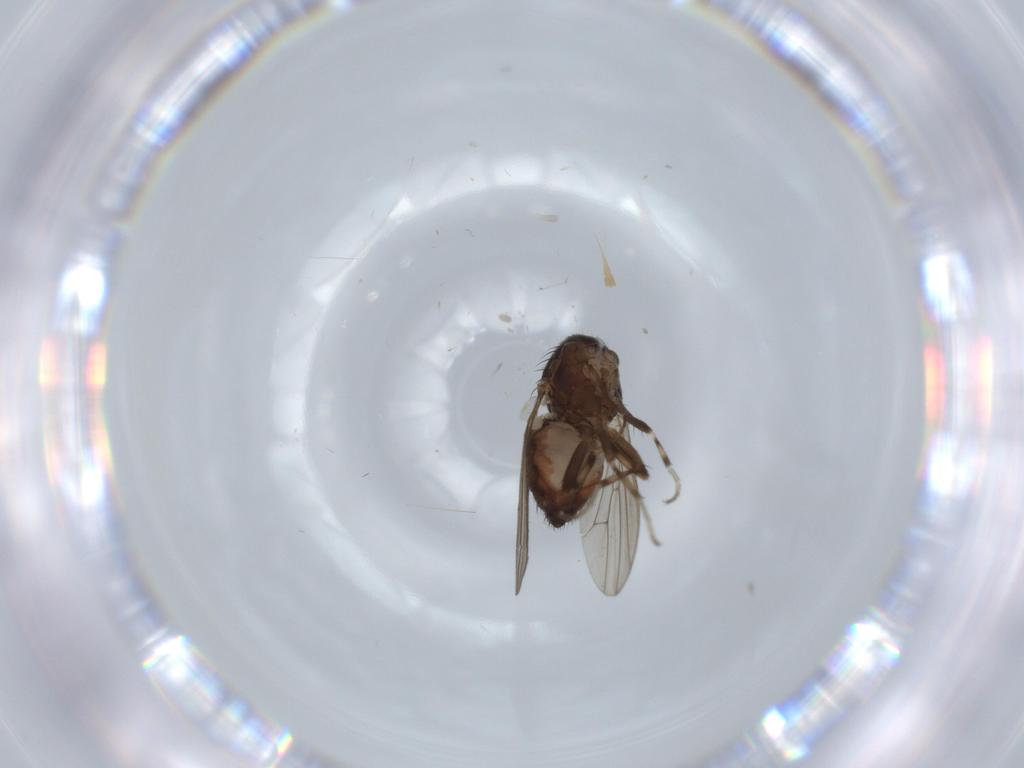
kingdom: Animalia
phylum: Arthropoda
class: Insecta
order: Diptera
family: Heleomyzidae
